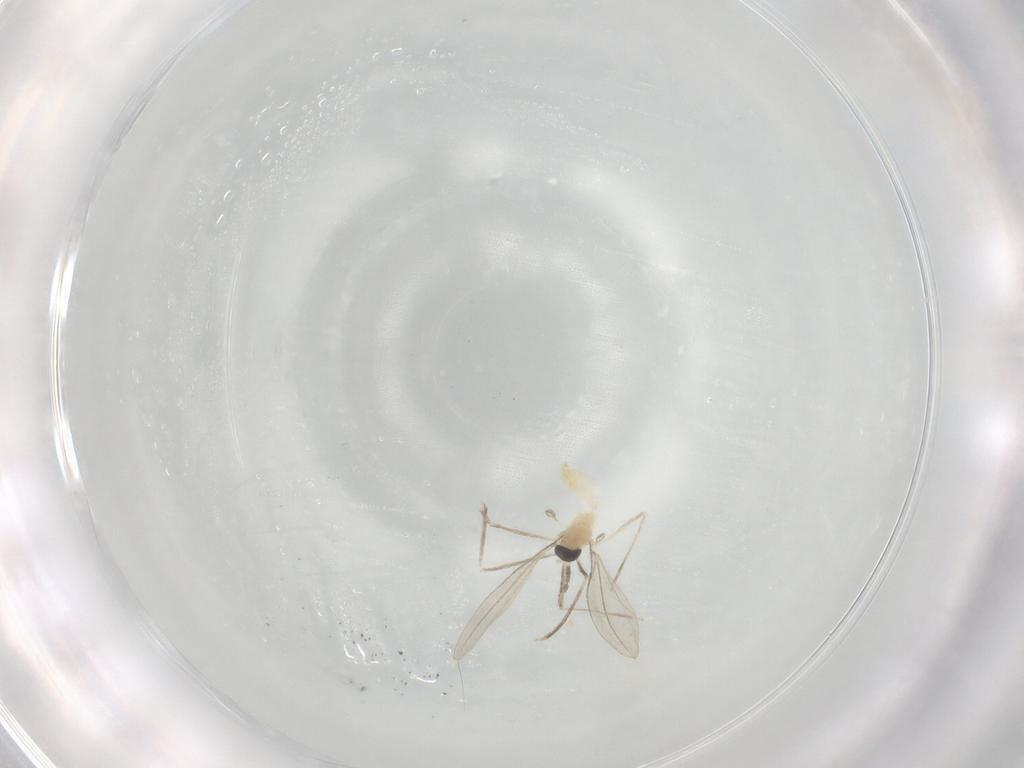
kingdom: Animalia
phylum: Arthropoda
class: Insecta
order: Diptera
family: Cecidomyiidae
